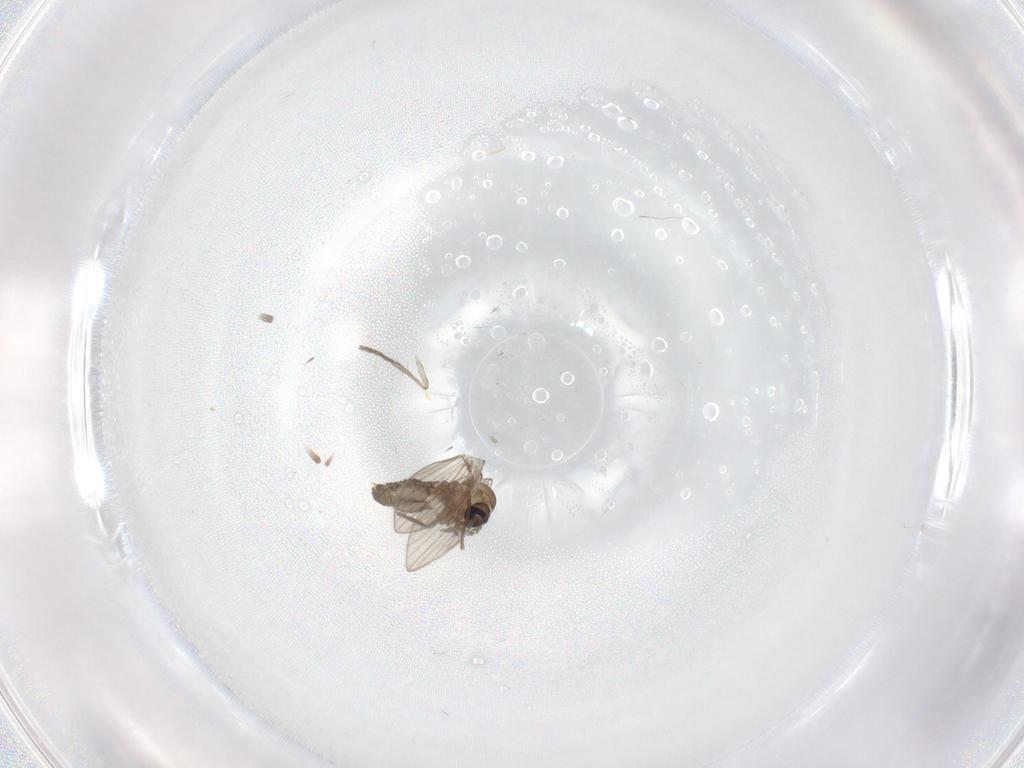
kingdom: Animalia
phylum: Arthropoda
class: Insecta
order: Diptera
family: Psychodidae
